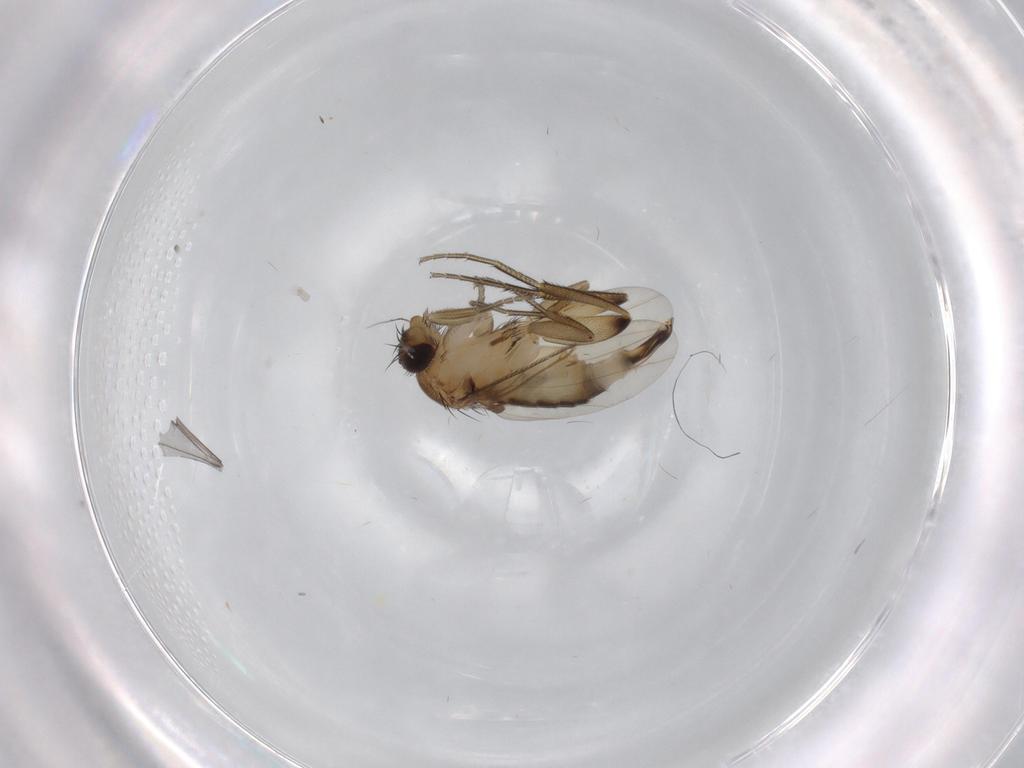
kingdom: Animalia
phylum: Arthropoda
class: Insecta
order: Diptera
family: Phoridae
